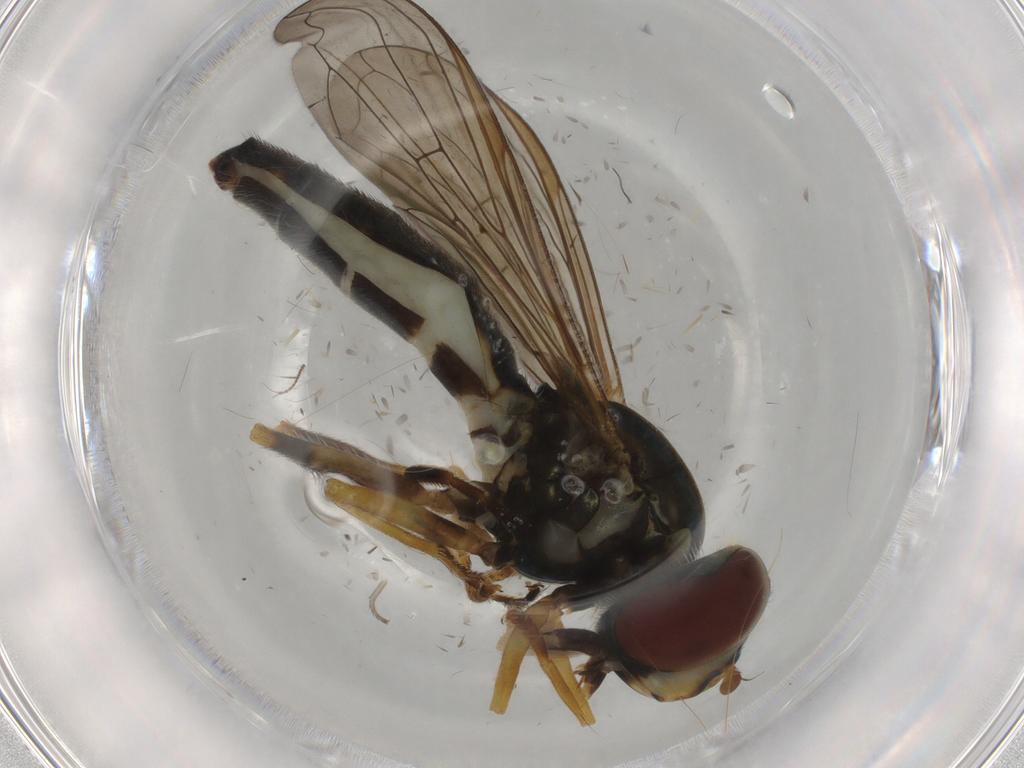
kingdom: Animalia
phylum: Arthropoda
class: Insecta
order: Diptera
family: Syrphidae
